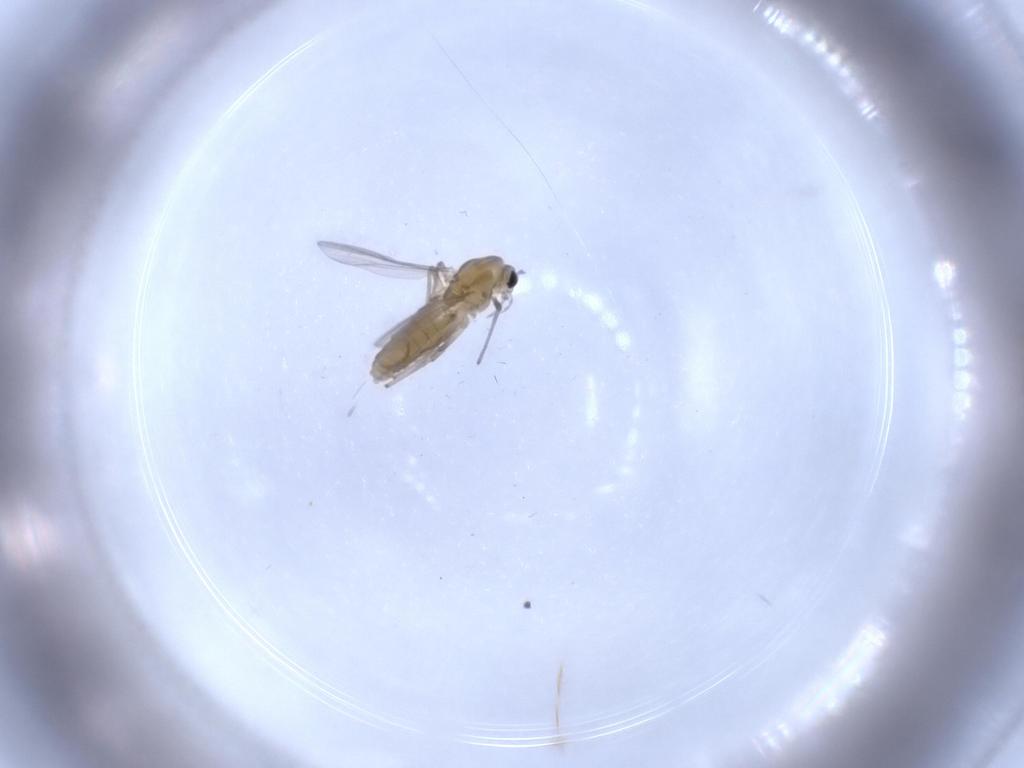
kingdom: Animalia
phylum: Arthropoda
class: Insecta
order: Diptera
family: Chironomidae
